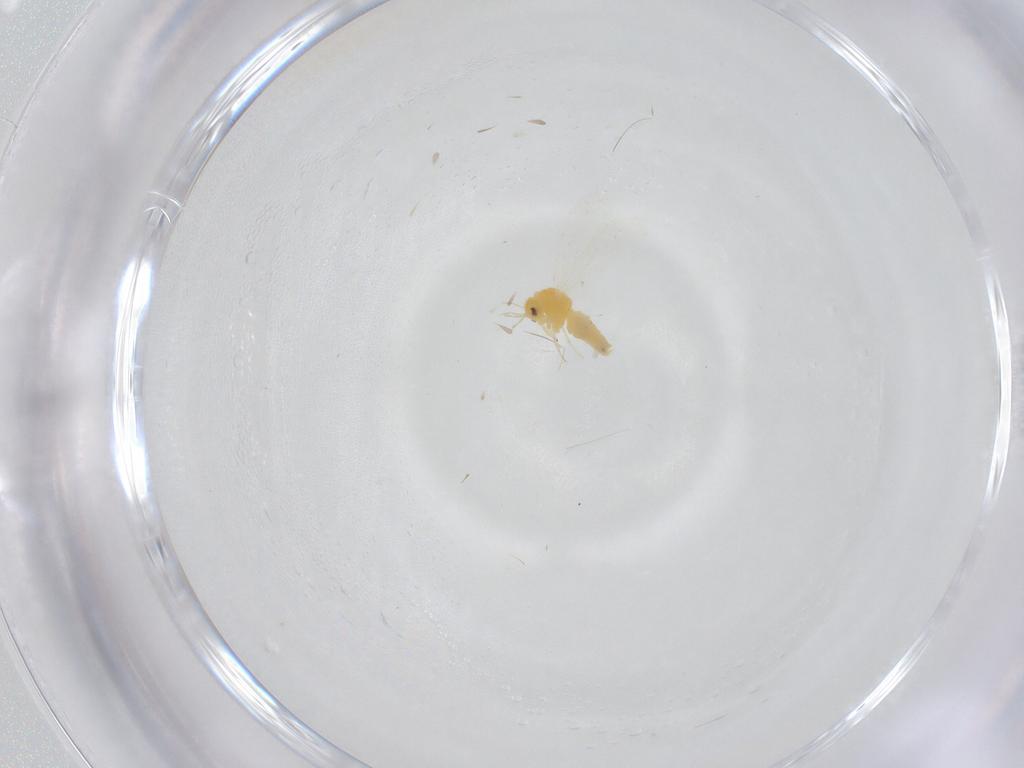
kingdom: Animalia
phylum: Arthropoda
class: Insecta
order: Hemiptera
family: Aleyrodidae
